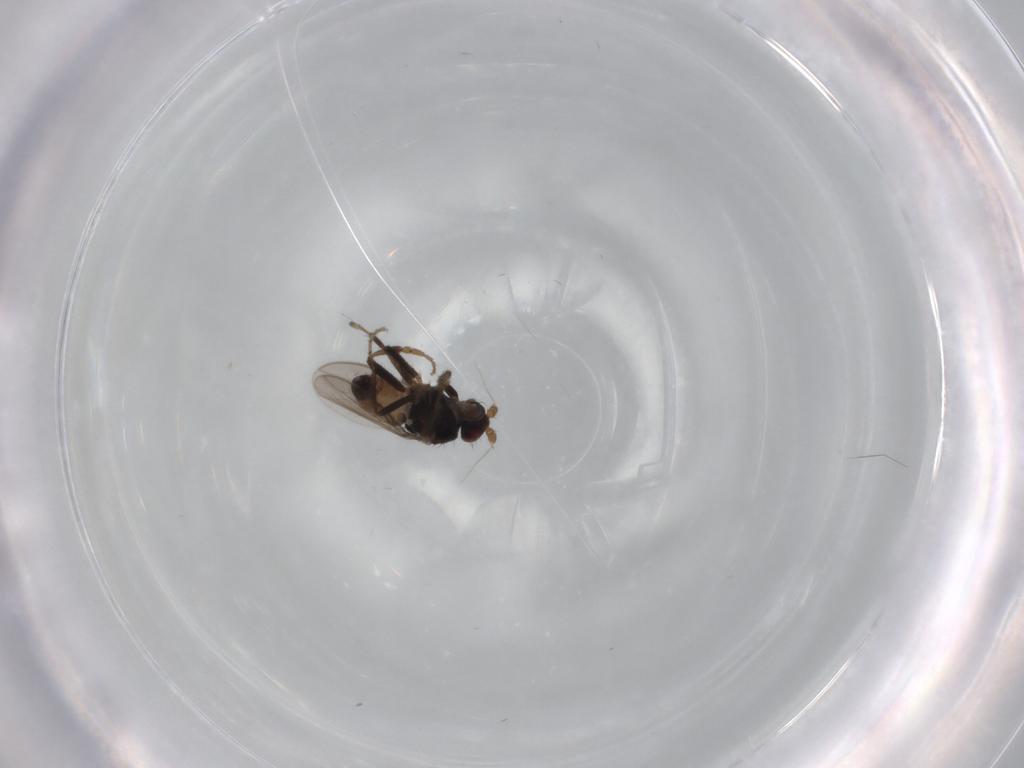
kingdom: Animalia
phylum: Arthropoda
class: Insecta
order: Diptera
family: Sphaeroceridae
